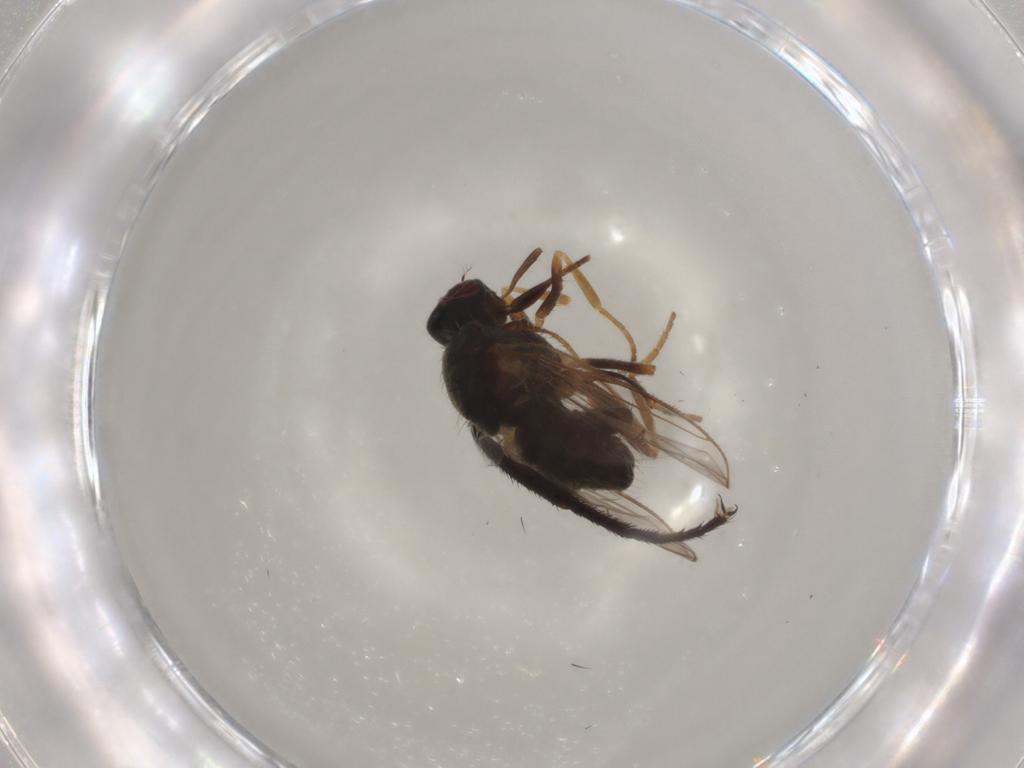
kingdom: Animalia
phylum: Arthropoda
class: Insecta
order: Diptera
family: Muscidae
